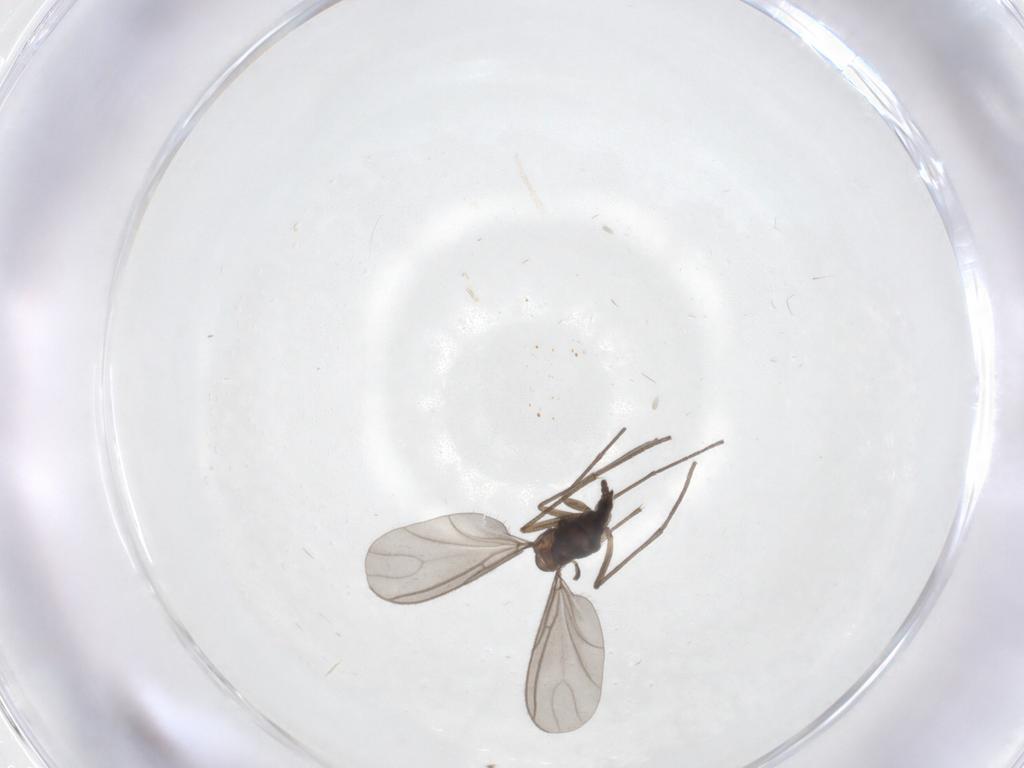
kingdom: Animalia
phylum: Arthropoda
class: Insecta
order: Diptera
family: Sciaridae
